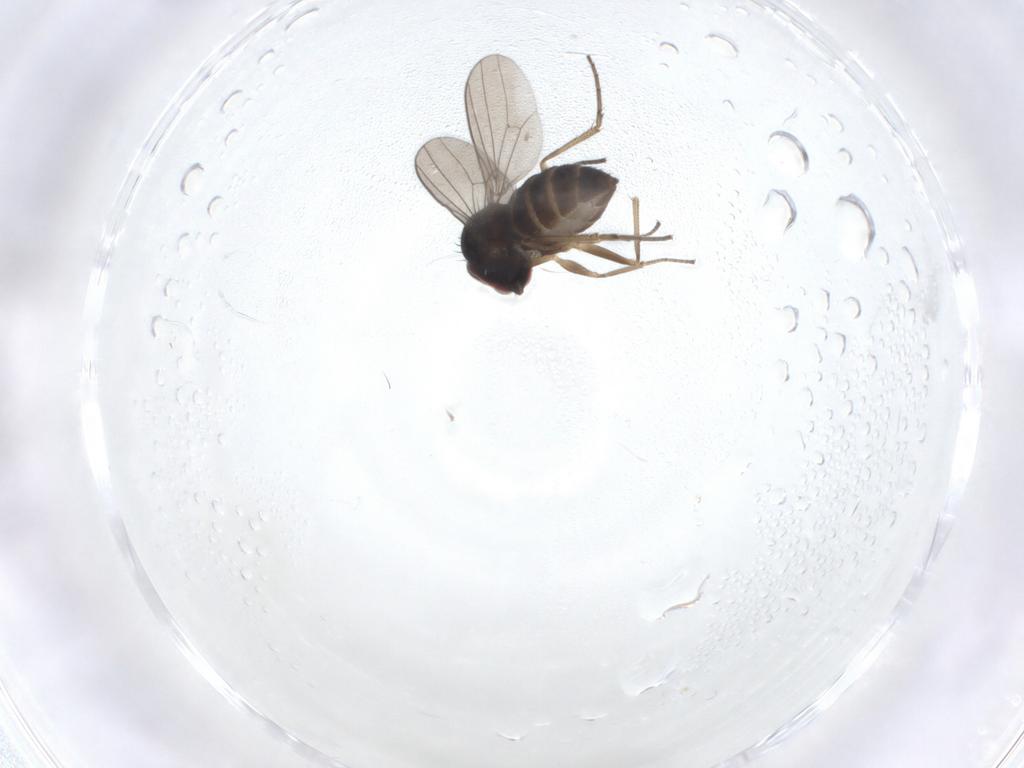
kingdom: Animalia
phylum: Arthropoda
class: Insecta
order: Diptera
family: Dolichopodidae
